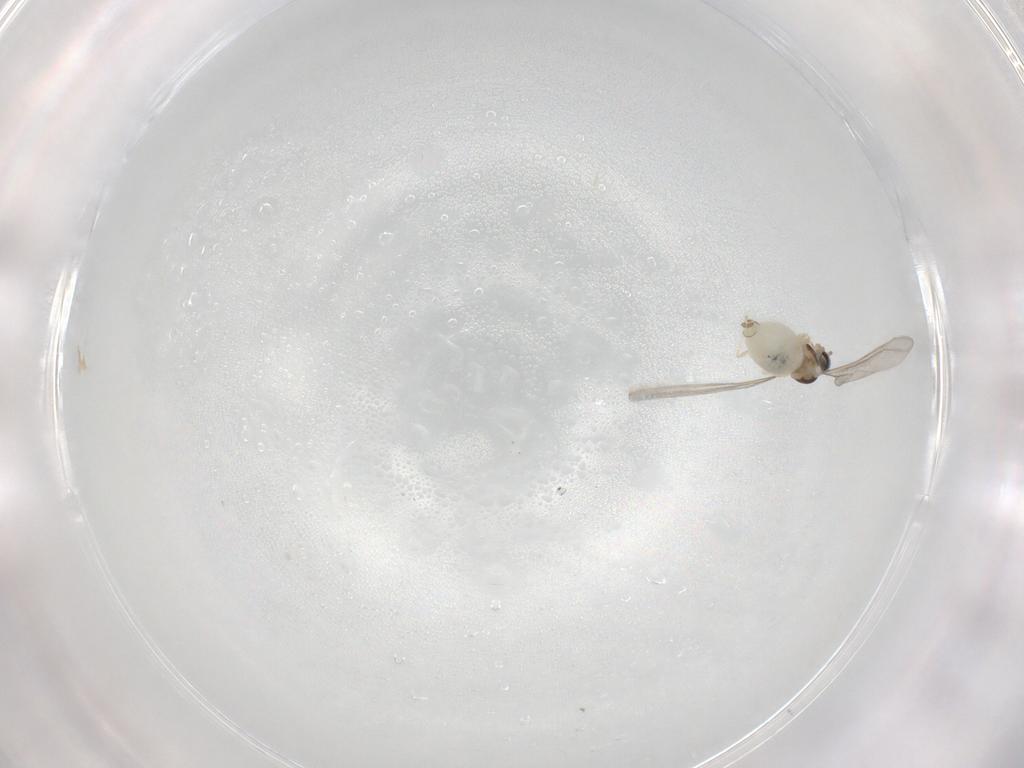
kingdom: Animalia
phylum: Arthropoda
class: Insecta
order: Diptera
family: Cecidomyiidae
